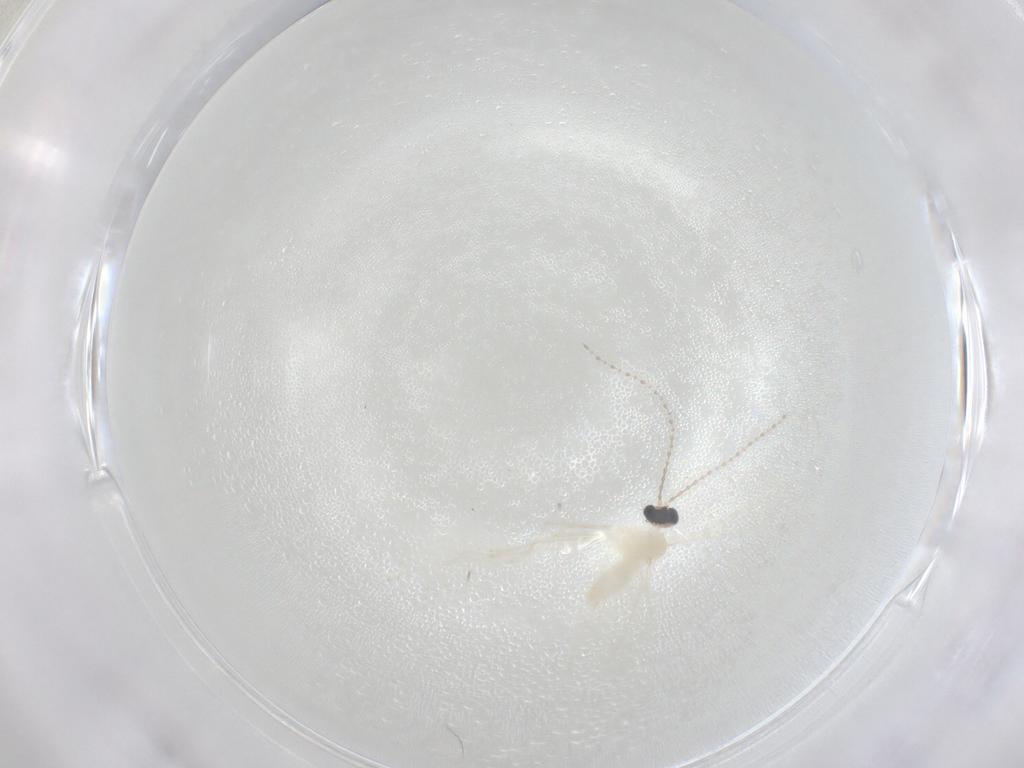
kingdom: Animalia
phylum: Arthropoda
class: Insecta
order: Diptera
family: Cecidomyiidae
